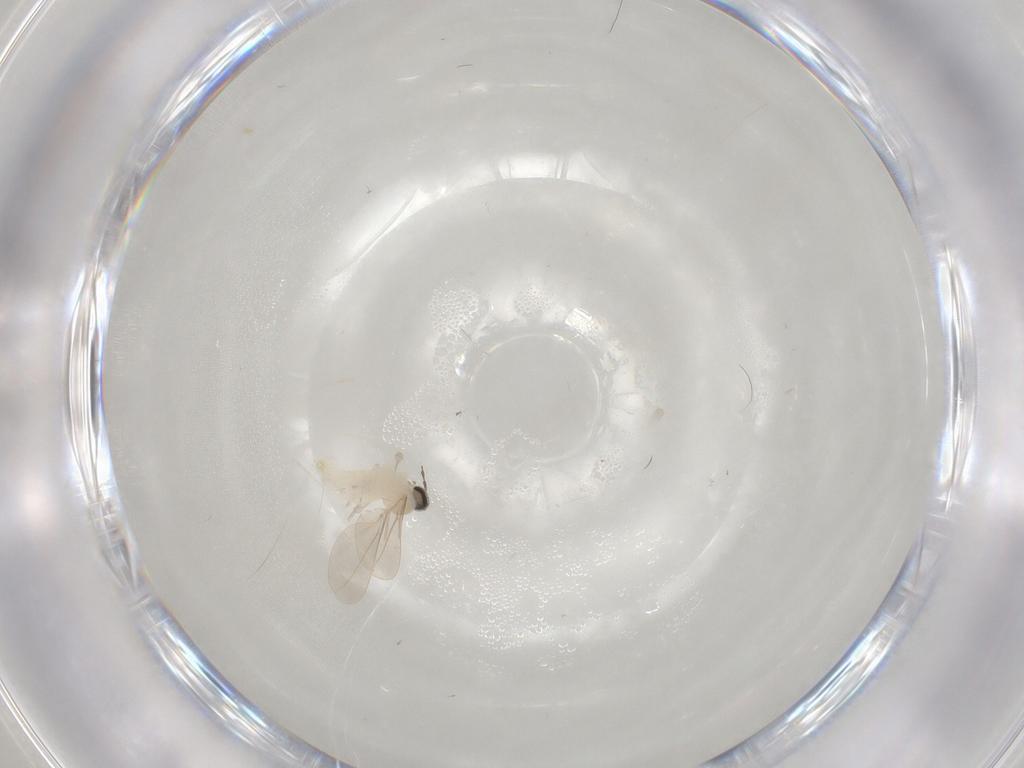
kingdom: Animalia
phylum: Arthropoda
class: Insecta
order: Diptera
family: Cecidomyiidae
